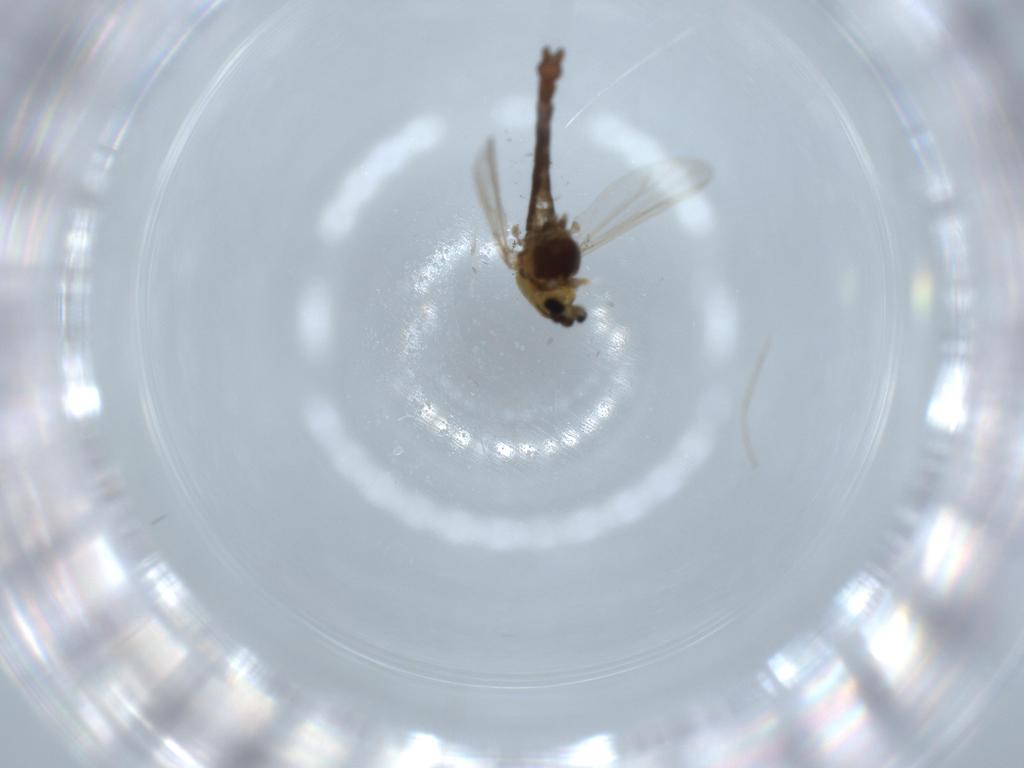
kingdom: Animalia
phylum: Arthropoda
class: Insecta
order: Diptera
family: Chironomidae
